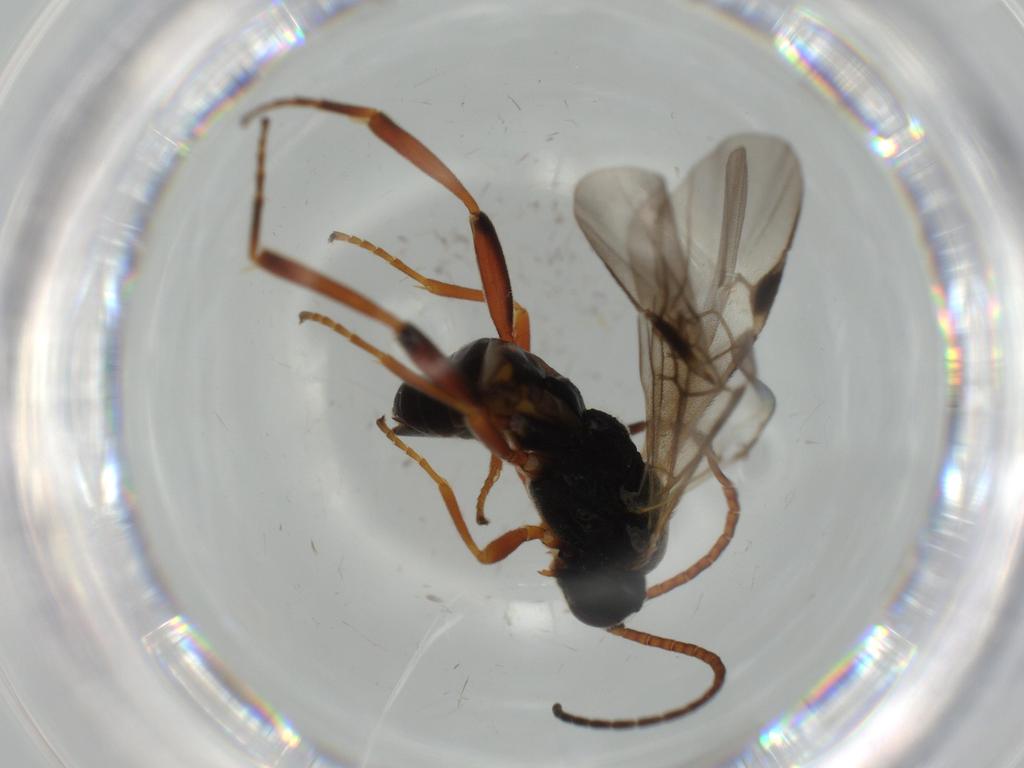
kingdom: Animalia
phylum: Arthropoda
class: Insecta
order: Hymenoptera
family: Braconidae
